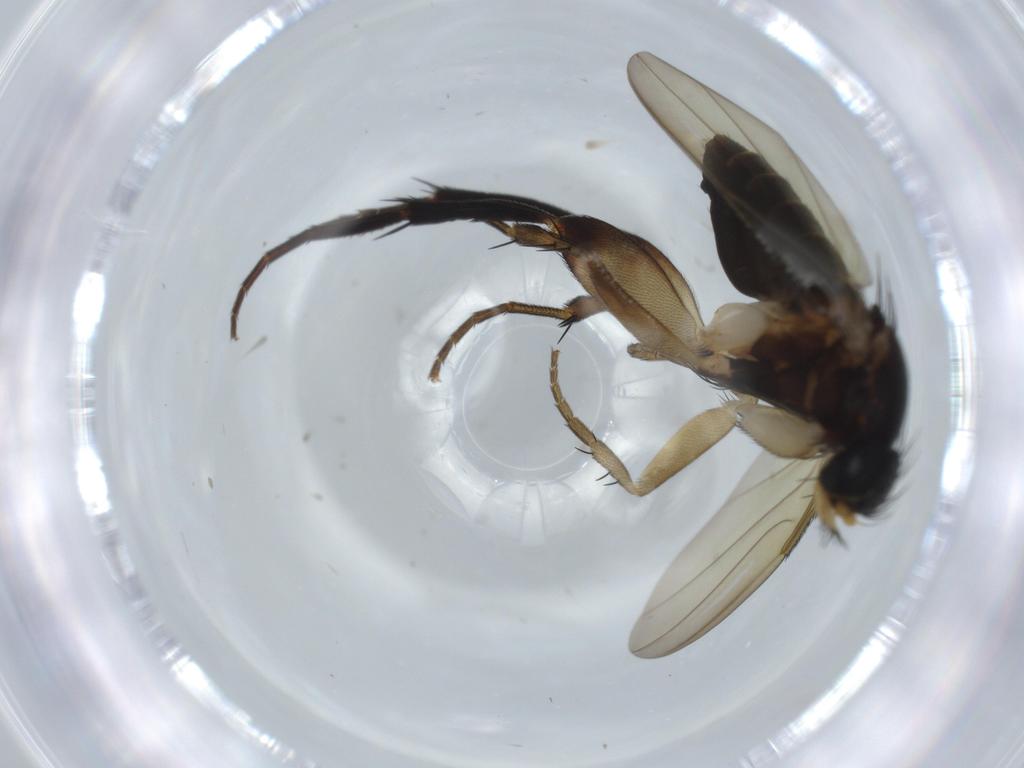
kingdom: Animalia
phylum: Arthropoda
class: Insecta
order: Diptera
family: Phoridae
